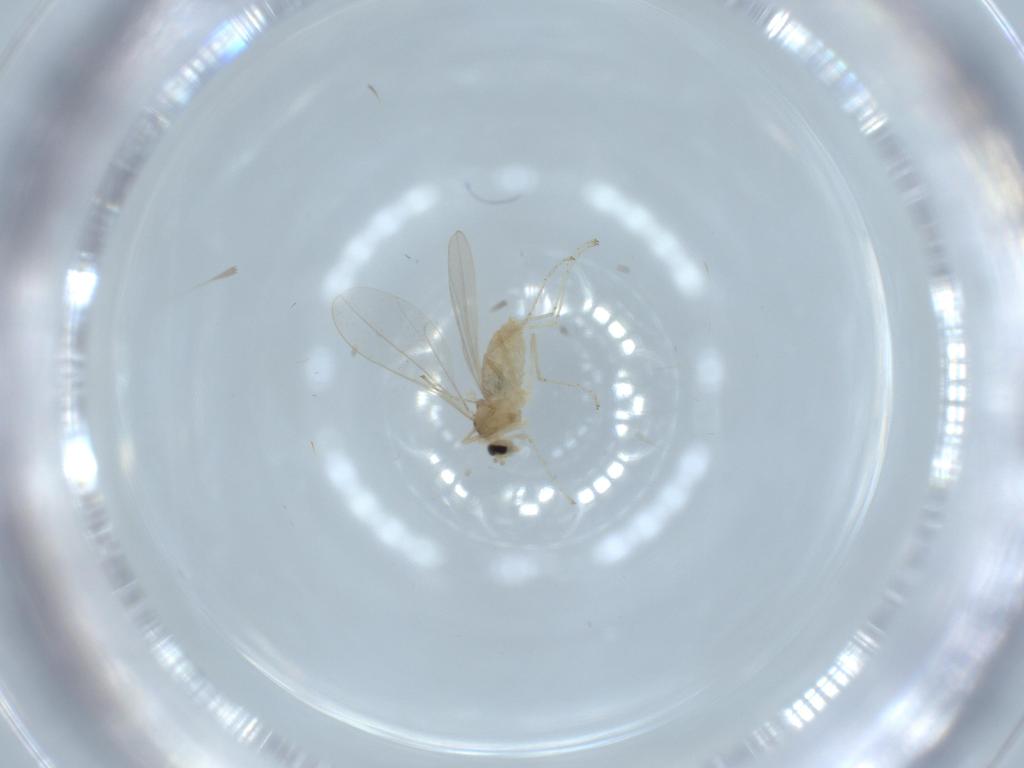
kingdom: Animalia
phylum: Arthropoda
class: Insecta
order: Diptera
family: Cecidomyiidae
